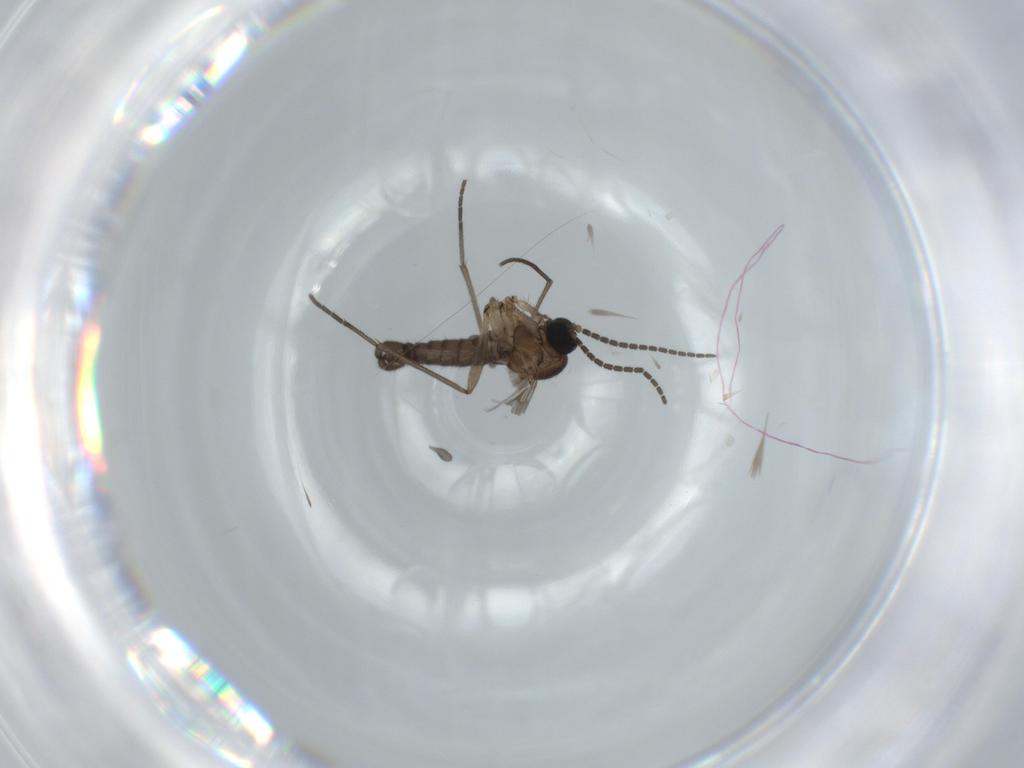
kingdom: Animalia
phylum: Arthropoda
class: Insecta
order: Diptera
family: Sciaridae
